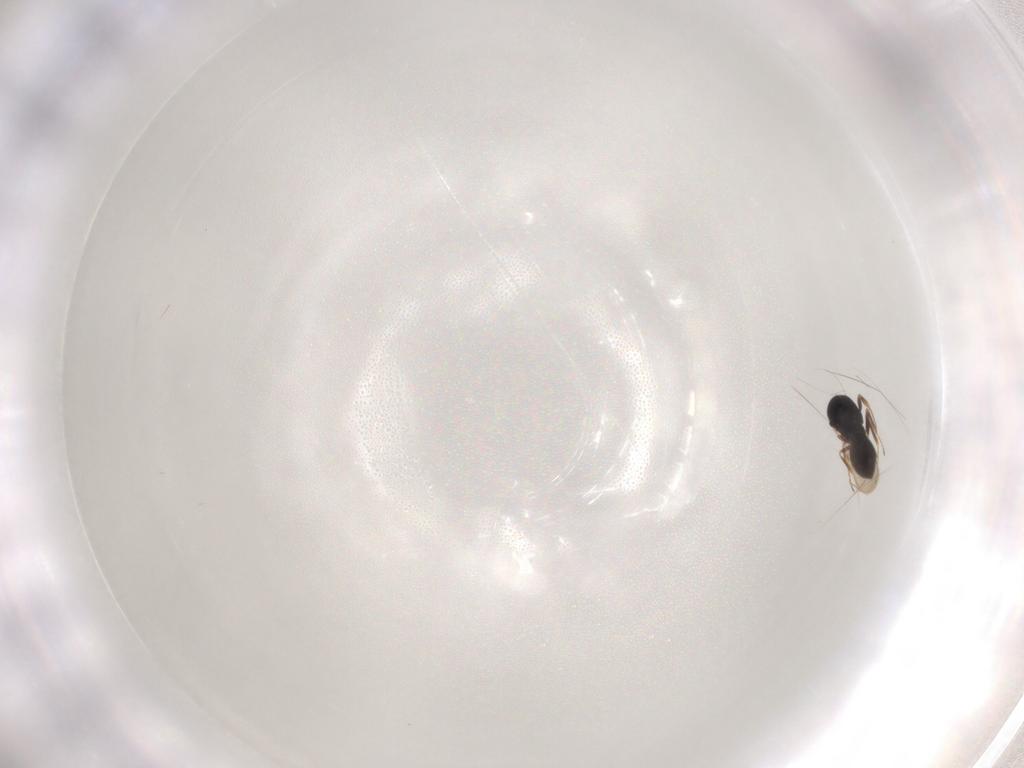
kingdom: Animalia
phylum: Arthropoda
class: Insecta
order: Hymenoptera
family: Scelionidae
